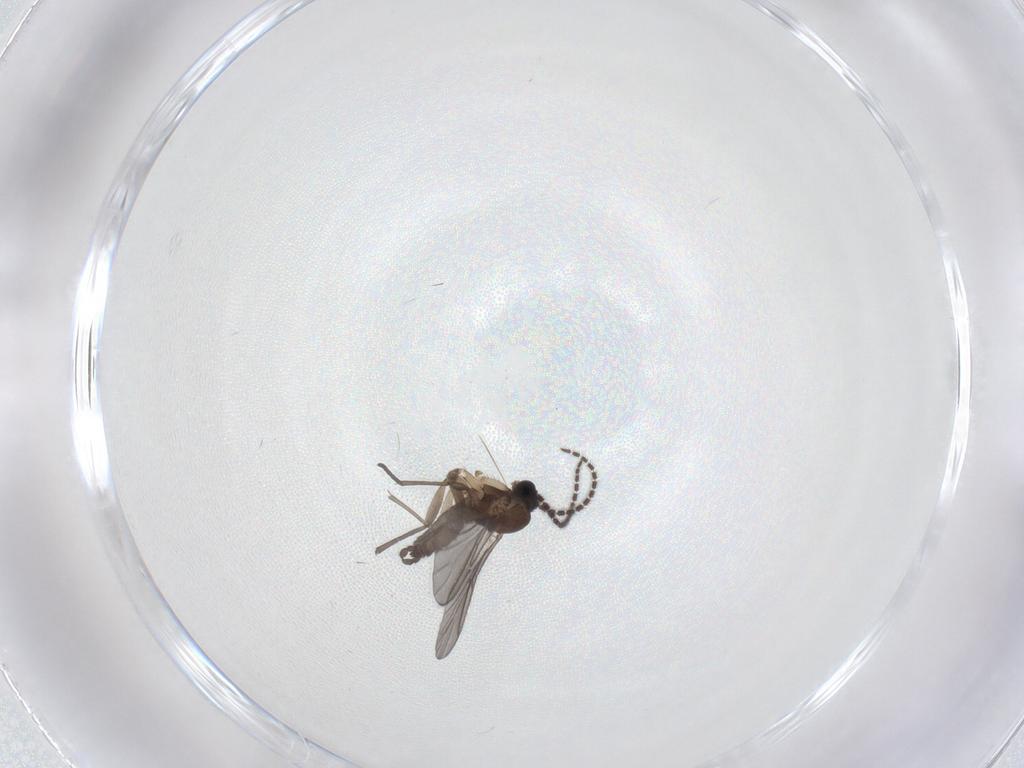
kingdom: Animalia
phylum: Arthropoda
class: Insecta
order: Diptera
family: Sciaridae
